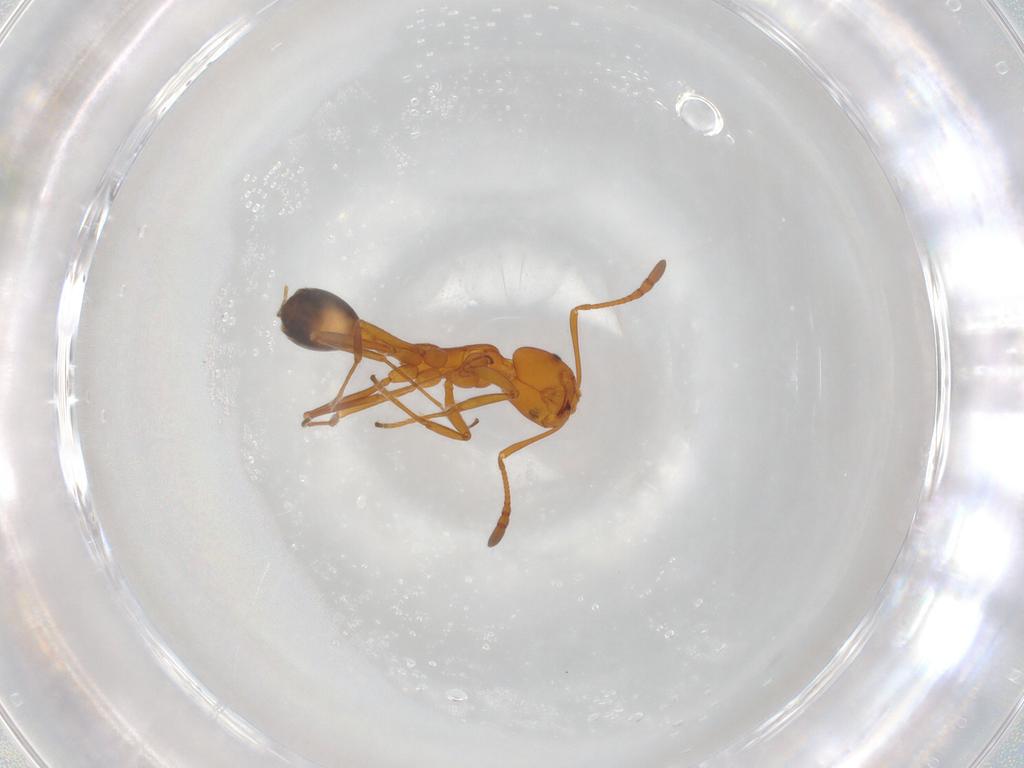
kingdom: Animalia
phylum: Arthropoda
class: Insecta
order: Hymenoptera
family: Formicidae
